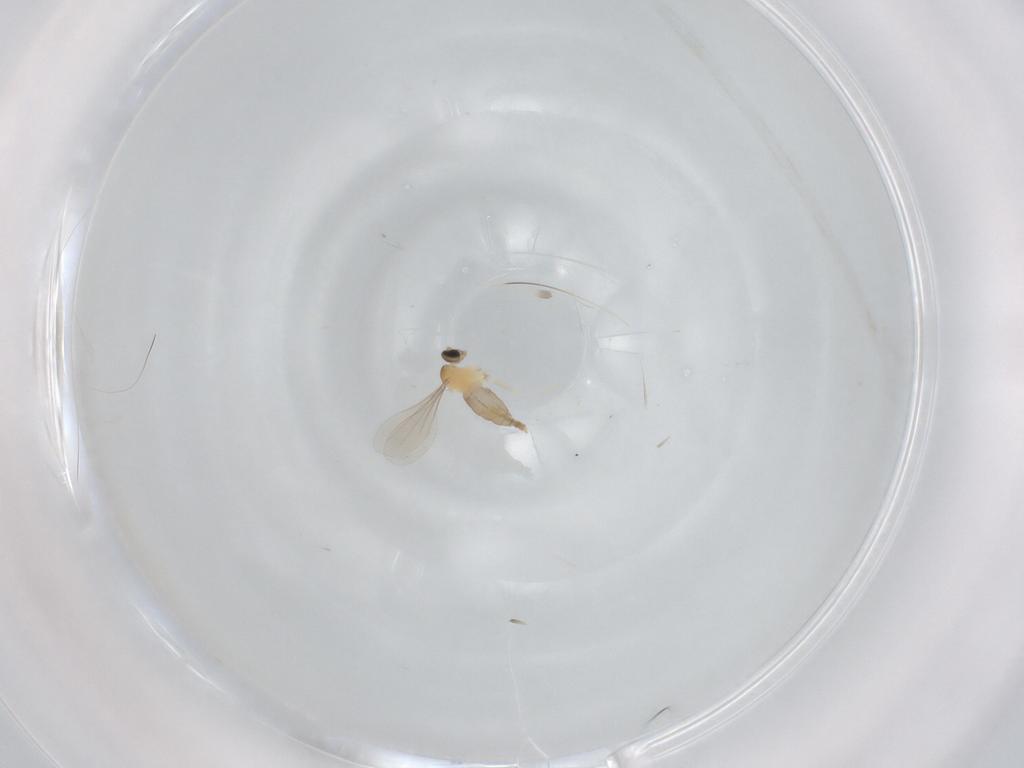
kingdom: Animalia
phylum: Arthropoda
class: Insecta
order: Diptera
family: Cecidomyiidae
